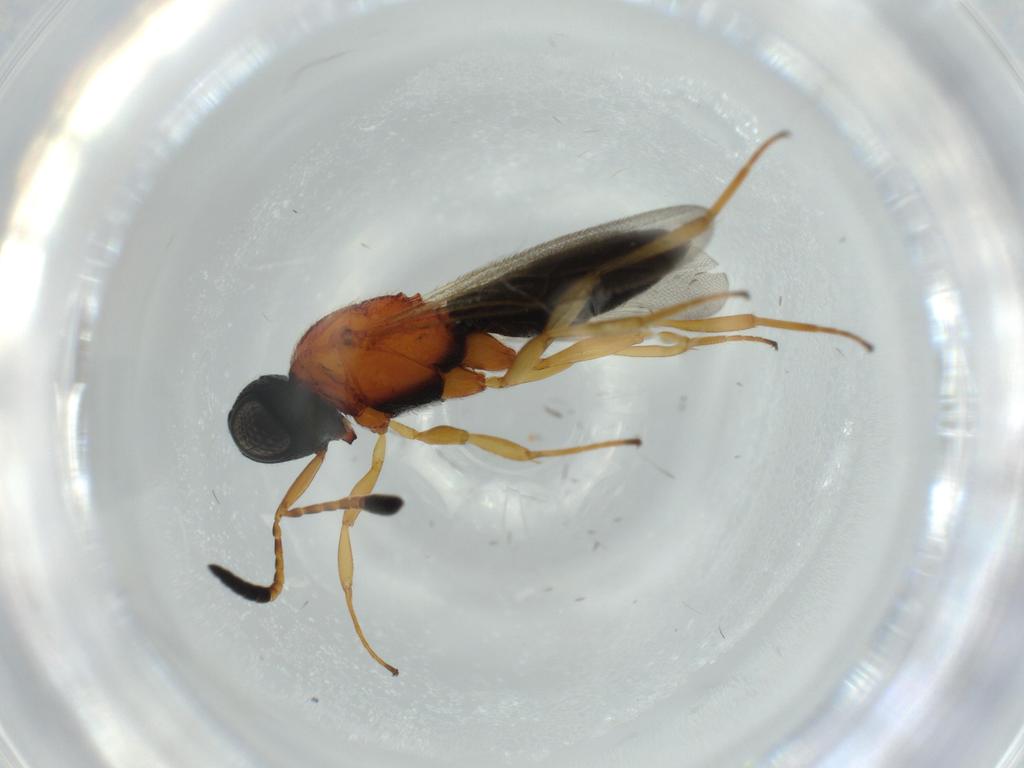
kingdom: Animalia
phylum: Arthropoda
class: Insecta
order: Hymenoptera
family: Scelionidae
